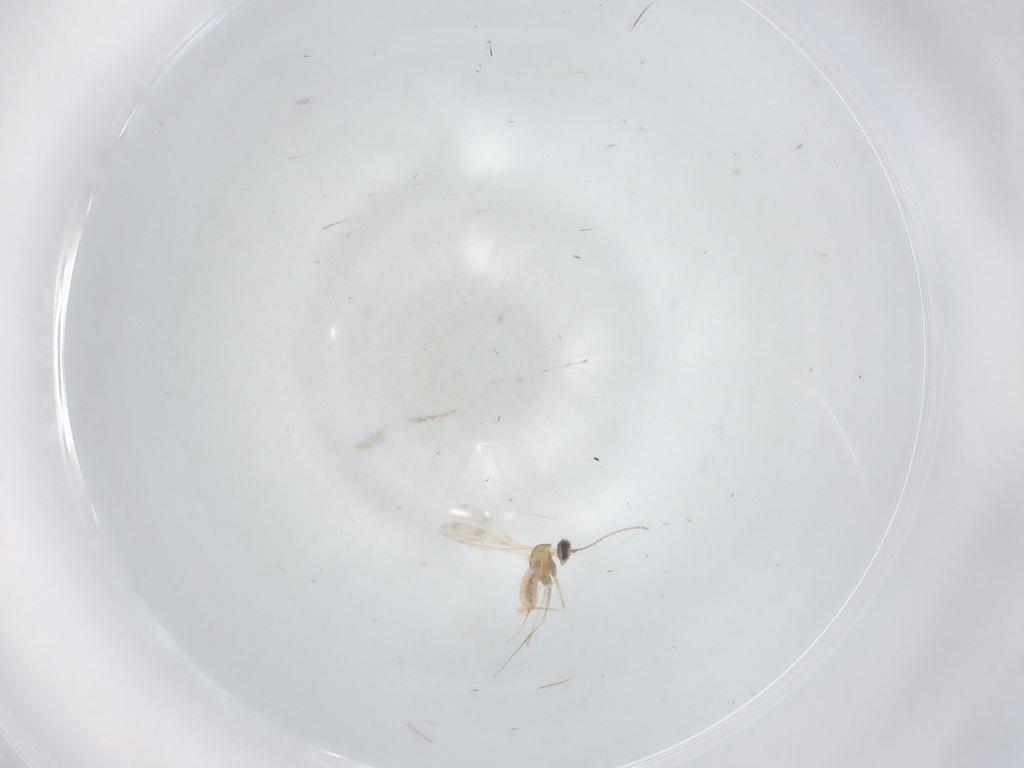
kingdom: Animalia
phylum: Arthropoda
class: Insecta
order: Diptera
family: Cecidomyiidae
